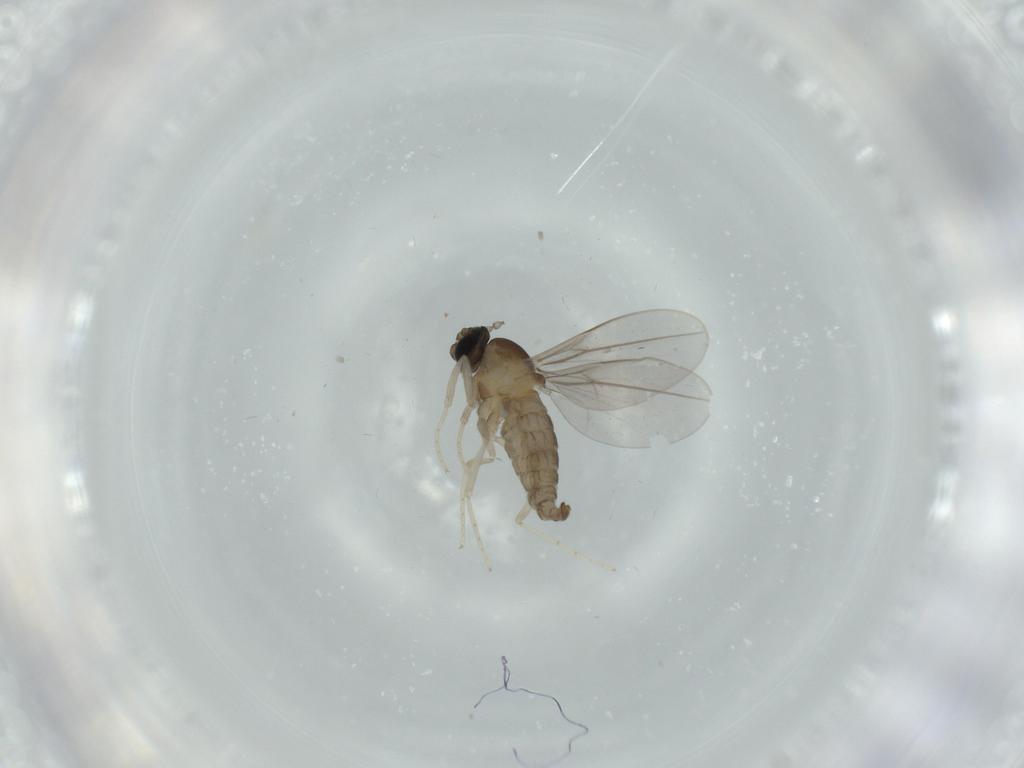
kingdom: Animalia
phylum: Arthropoda
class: Insecta
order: Diptera
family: Cecidomyiidae
